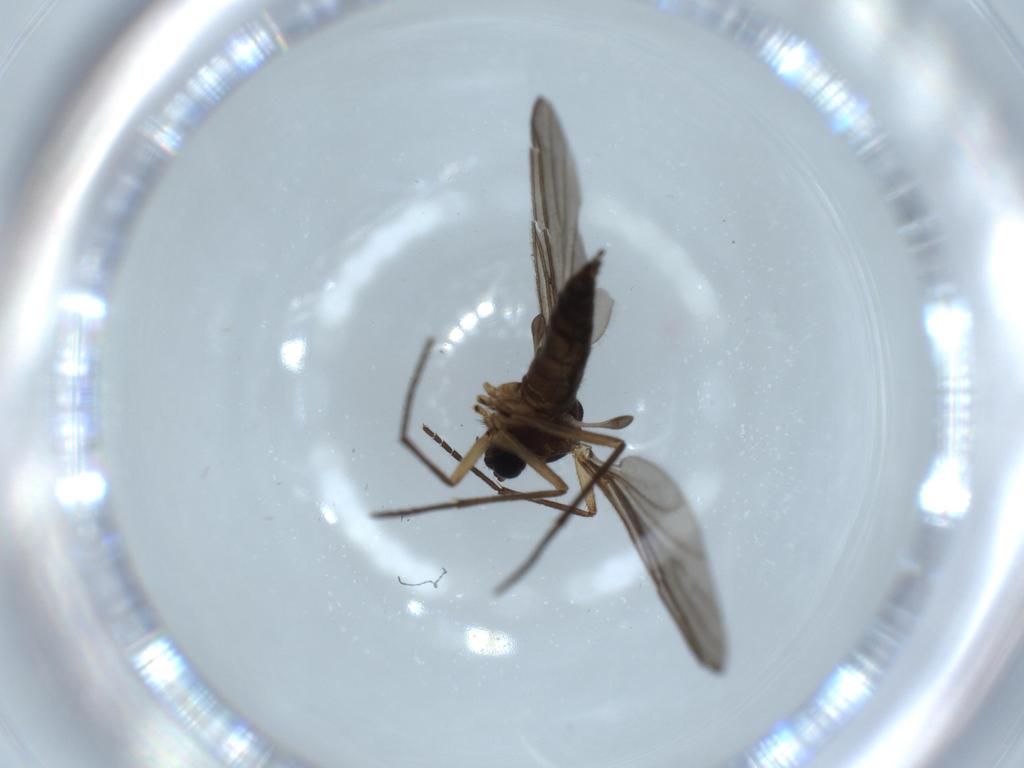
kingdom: Animalia
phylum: Arthropoda
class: Insecta
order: Diptera
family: Sciaridae
